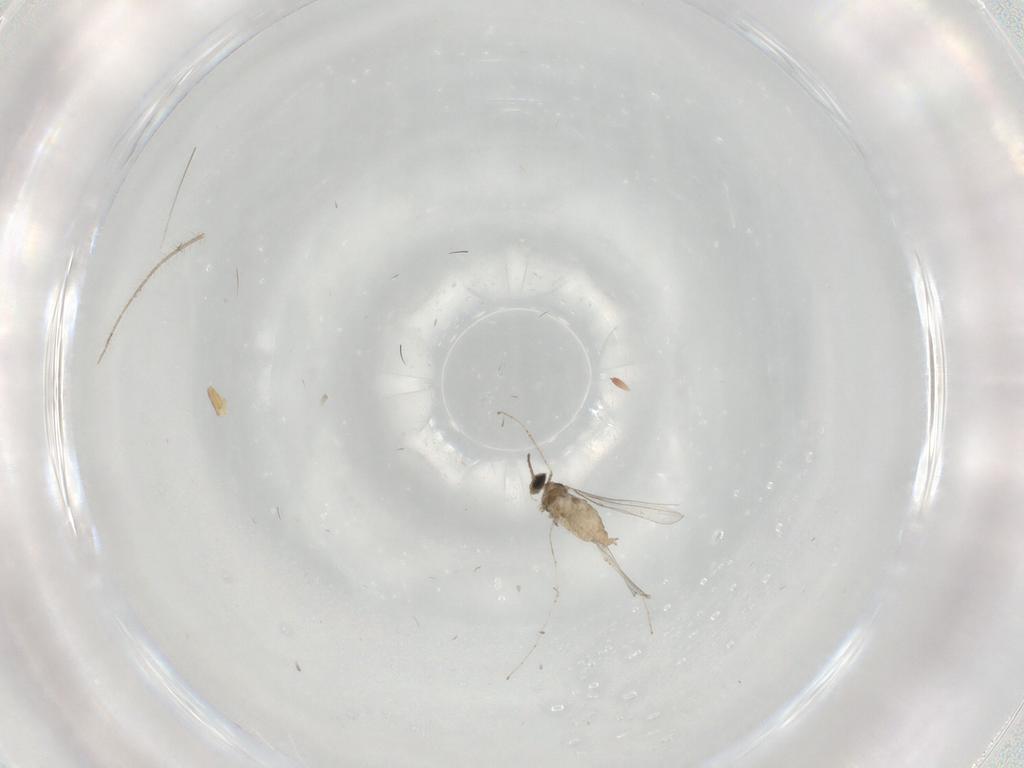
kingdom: Animalia
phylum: Arthropoda
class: Insecta
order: Diptera
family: Cecidomyiidae
